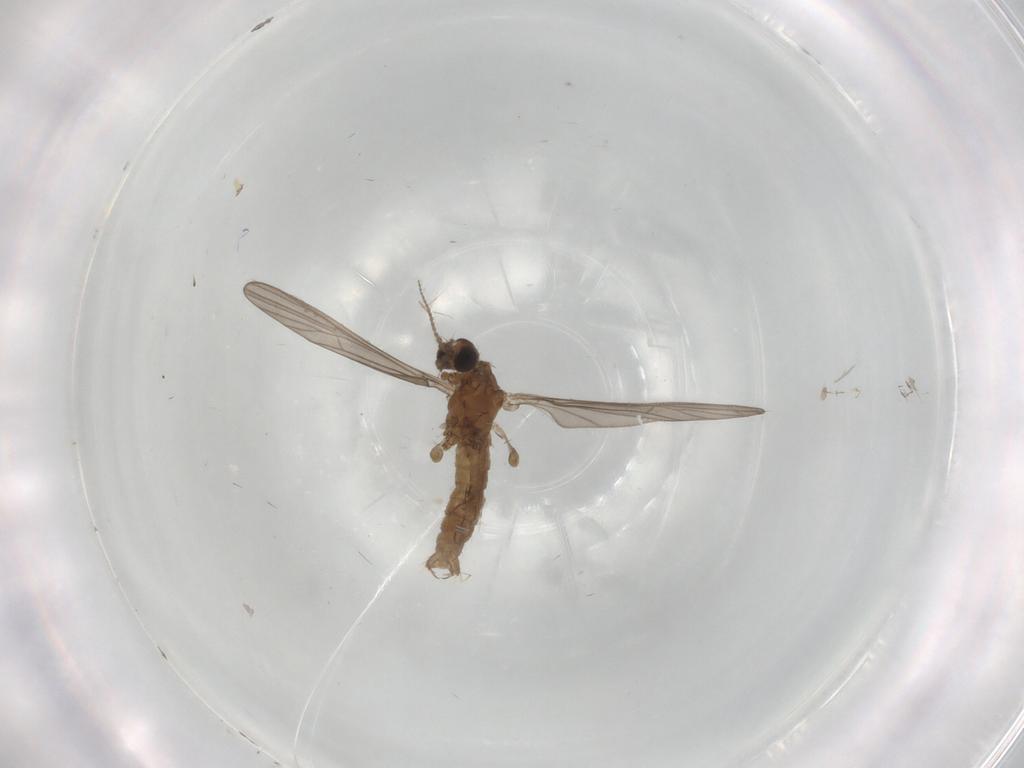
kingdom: Animalia
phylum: Arthropoda
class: Insecta
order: Diptera
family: Limoniidae
